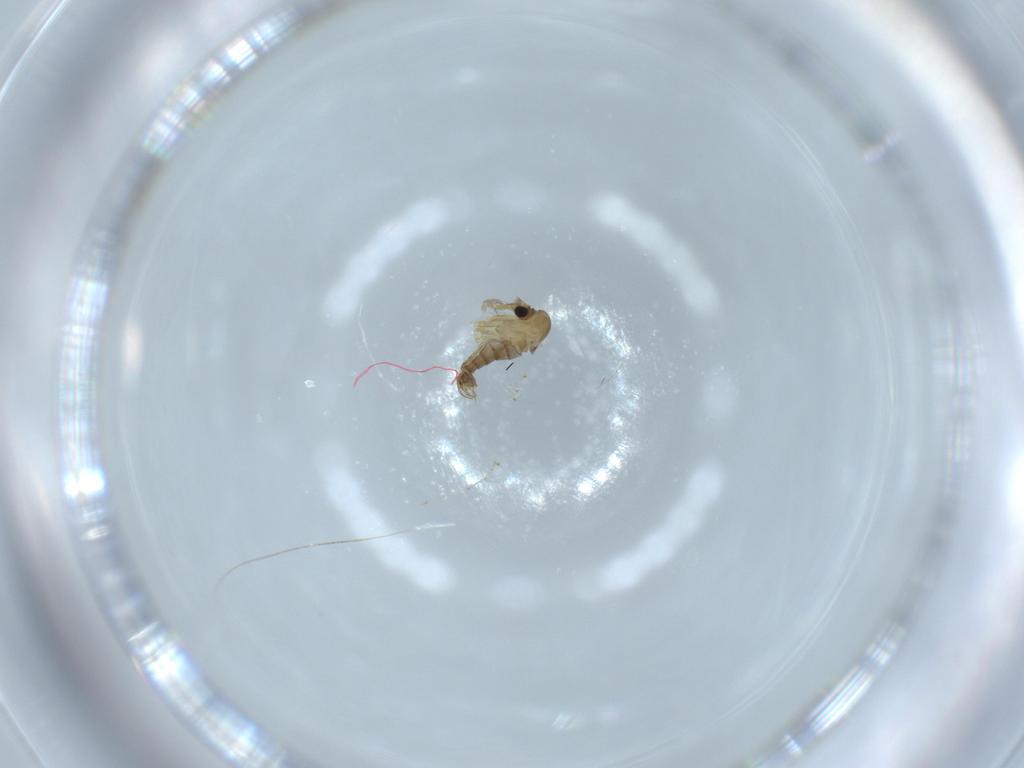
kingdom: Animalia
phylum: Arthropoda
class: Insecta
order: Diptera
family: Psychodidae
